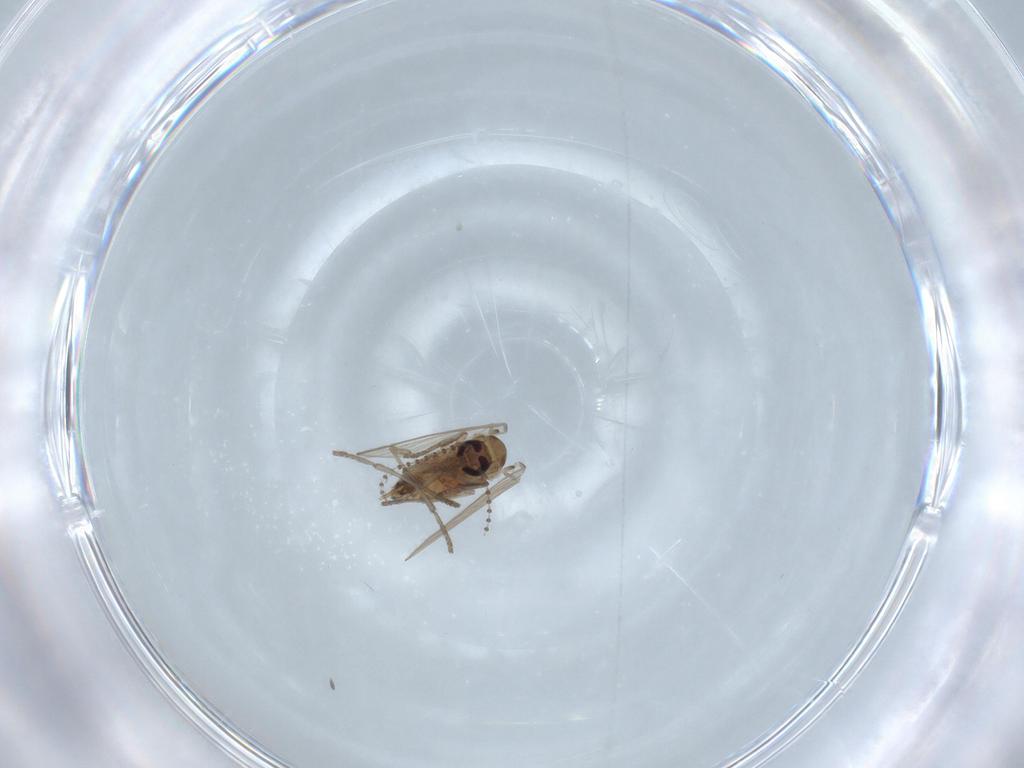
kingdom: Animalia
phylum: Arthropoda
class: Insecta
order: Diptera
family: Psychodidae
